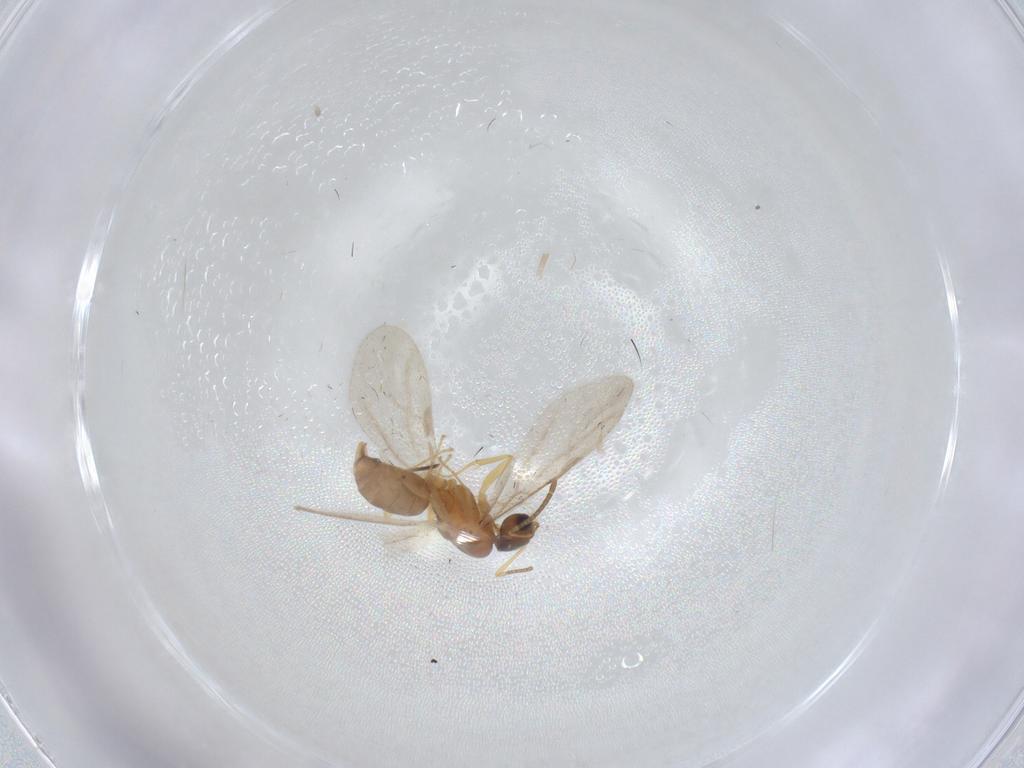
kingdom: Animalia
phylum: Arthropoda
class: Insecta
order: Hymenoptera
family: Formicidae
